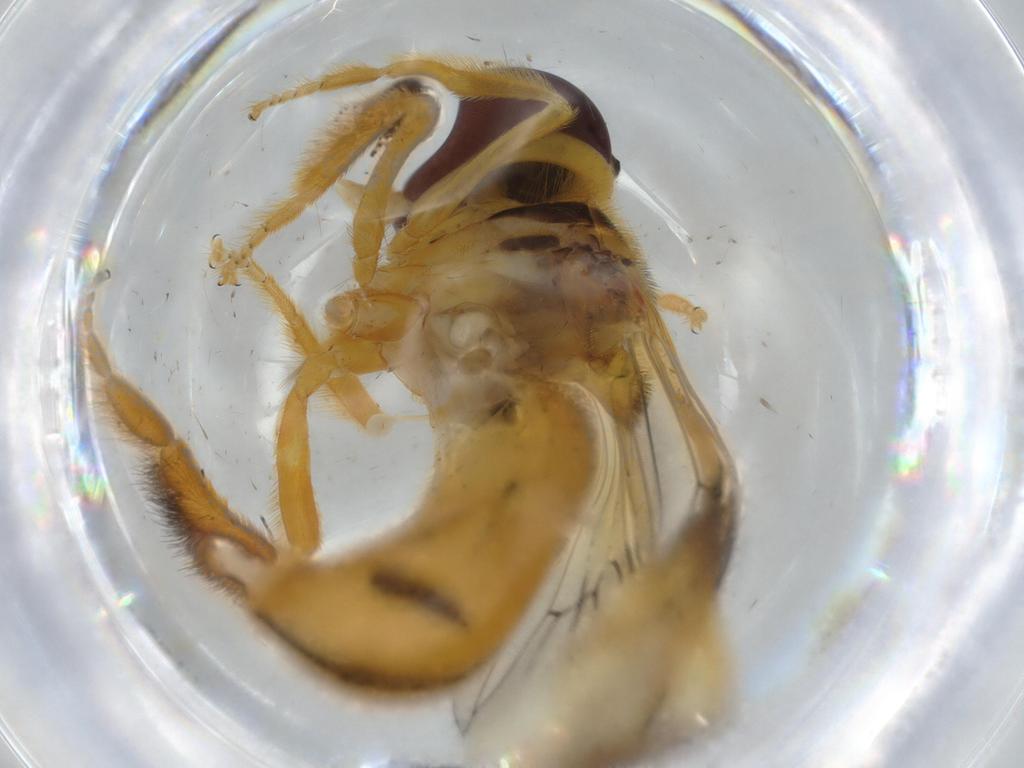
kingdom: Animalia
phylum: Arthropoda
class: Insecta
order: Diptera
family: Syrphidae
